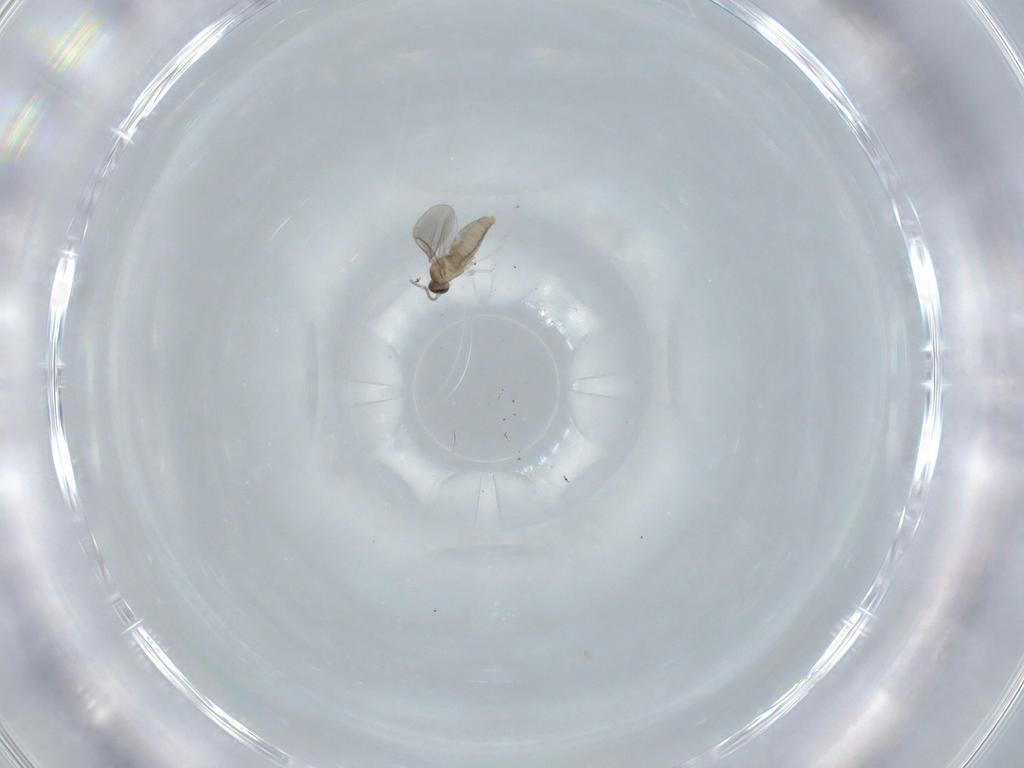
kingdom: Animalia
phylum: Arthropoda
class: Insecta
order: Diptera
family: Cecidomyiidae
